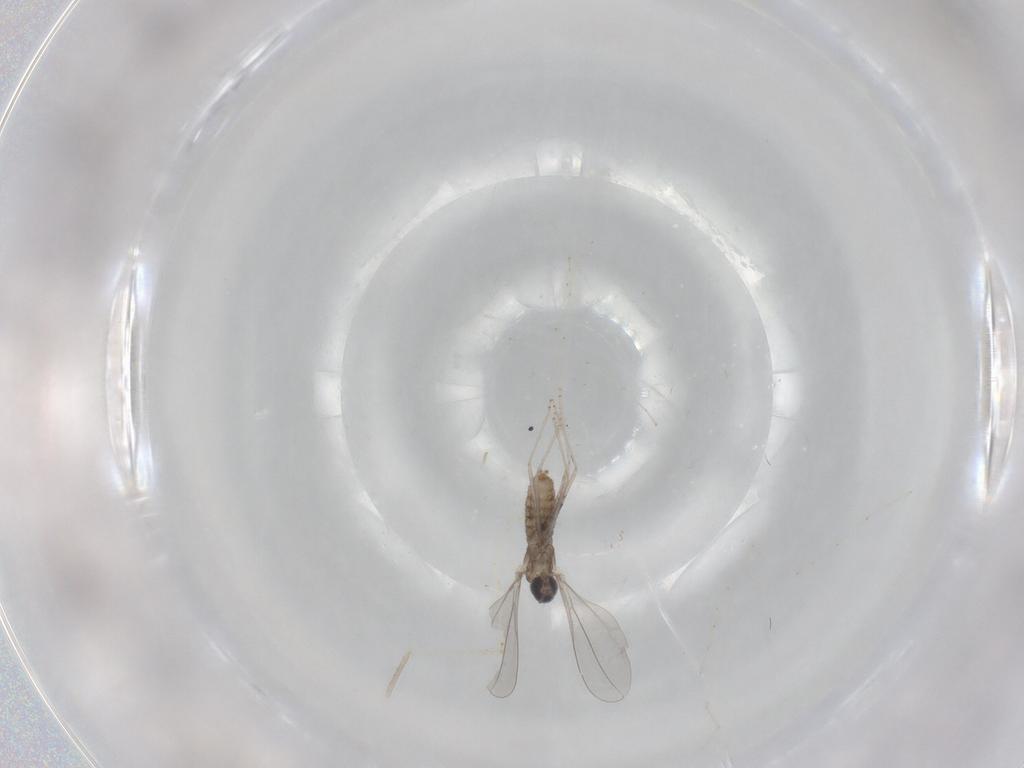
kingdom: Animalia
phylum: Arthropoda
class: Insecta
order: Diptera
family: Cecidomyiidae
